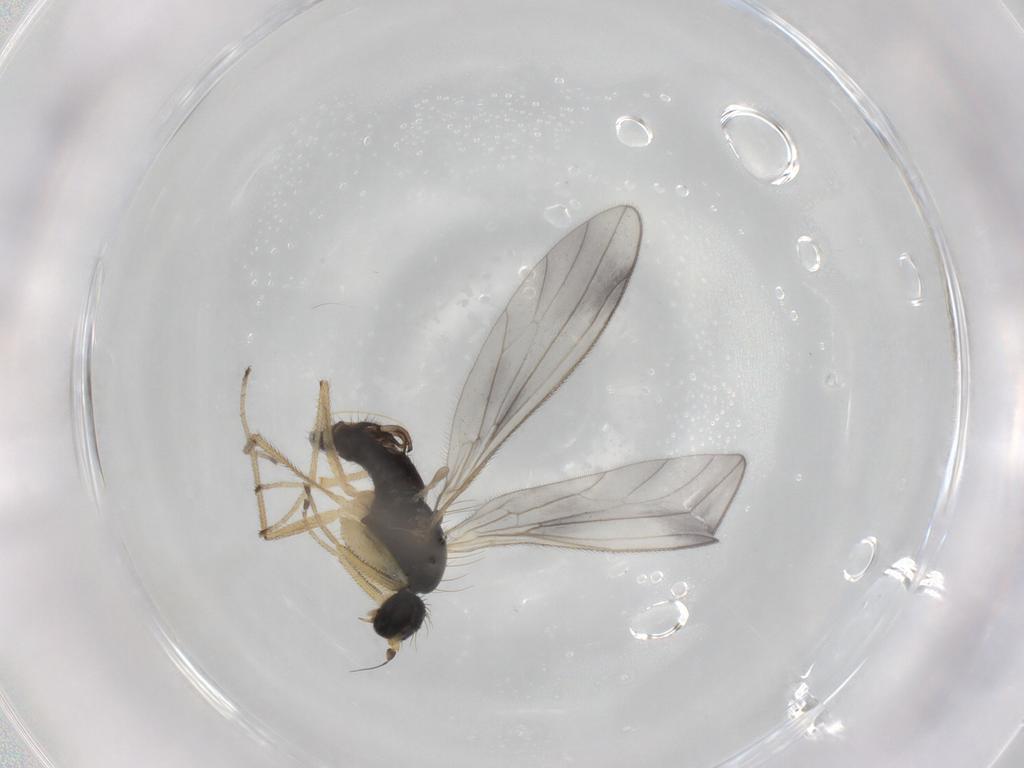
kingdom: Animalia
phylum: Arthropoda
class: Insecta
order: Diptera
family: Empididae
